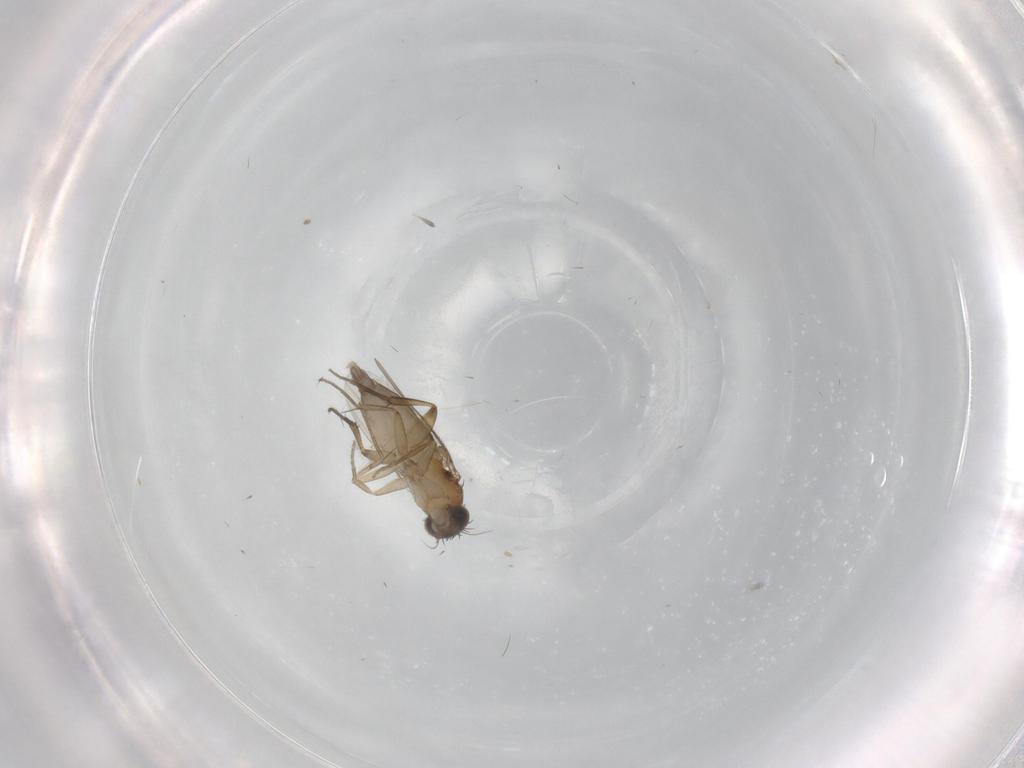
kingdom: Animalia
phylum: Arthropoda
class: Insecta
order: Diptera
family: Phoridae
